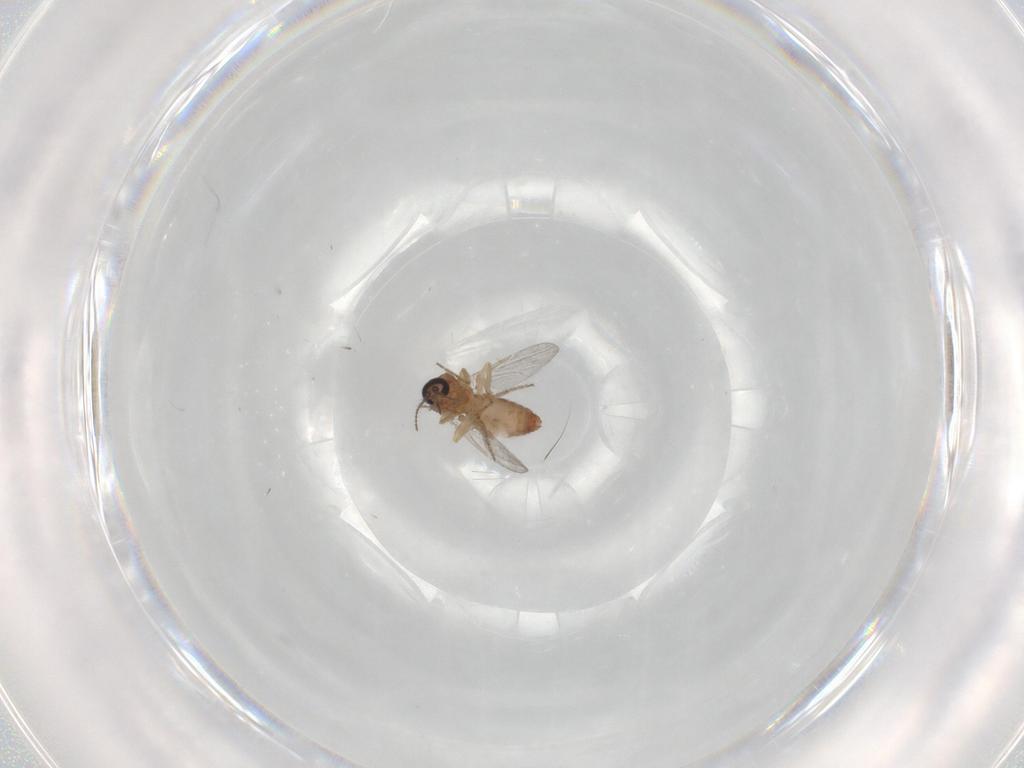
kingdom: Animalia
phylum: Arthropoda
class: Insecta
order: Diptera
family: Ceratopogonidae
